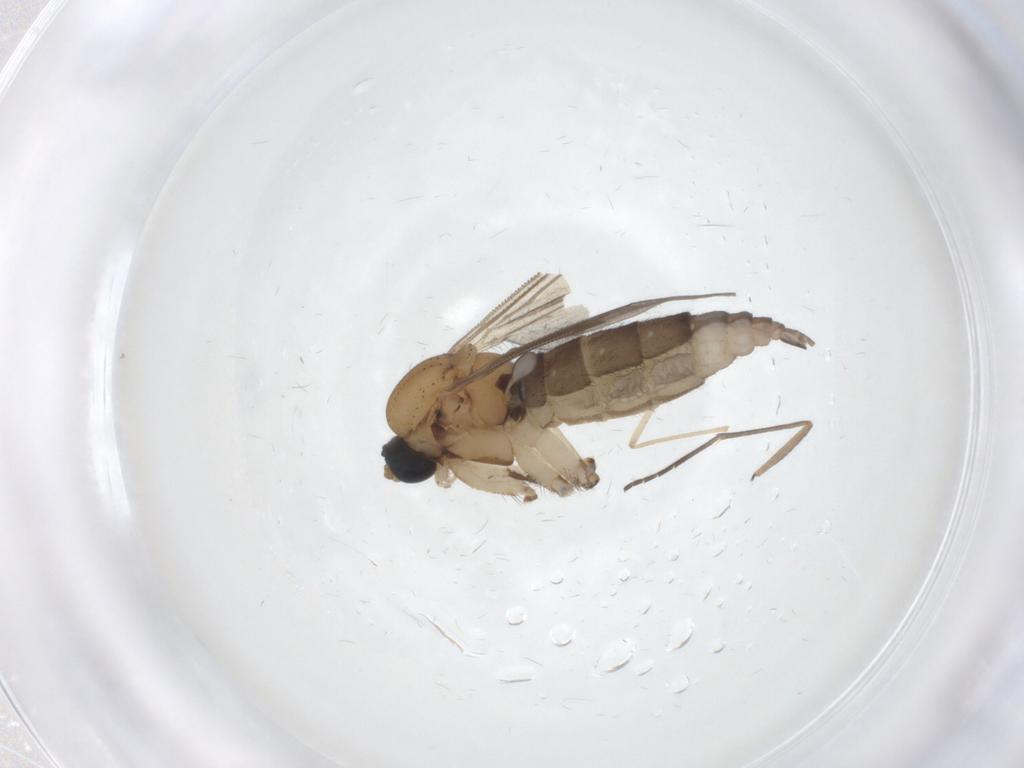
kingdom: Animalia
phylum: Arthropoda
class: Insecta
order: Diptera
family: Sciaridae
